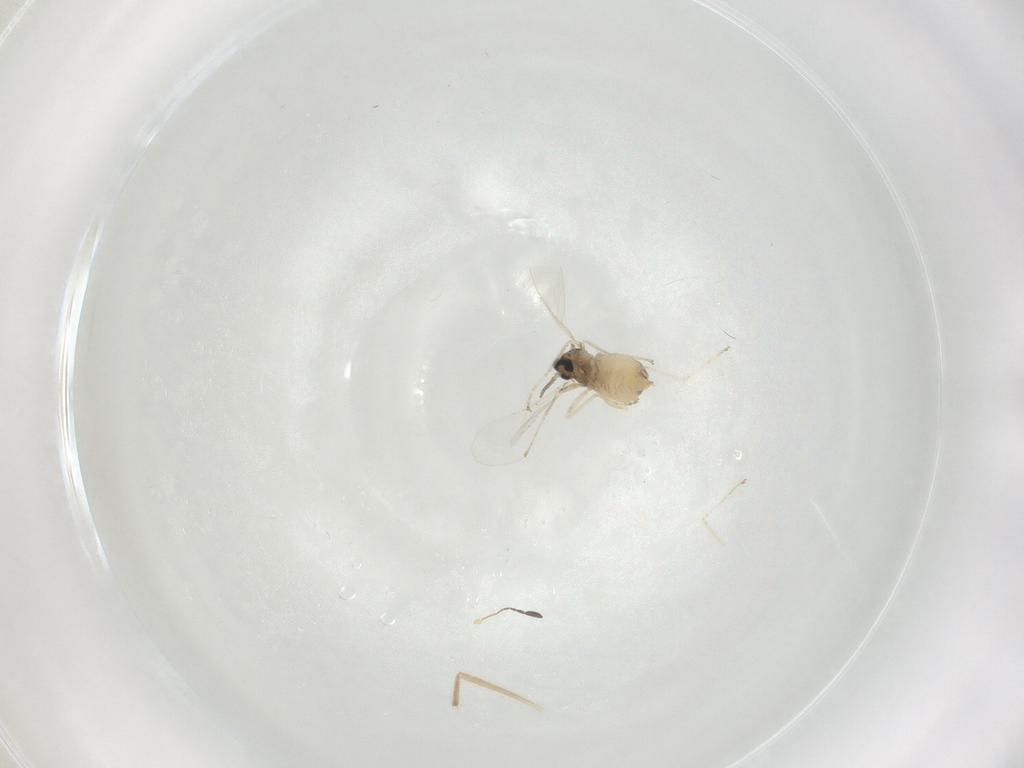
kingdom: Animalia
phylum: Arthropoda
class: Insecta
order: Diptera
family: Cecidomyiidae
